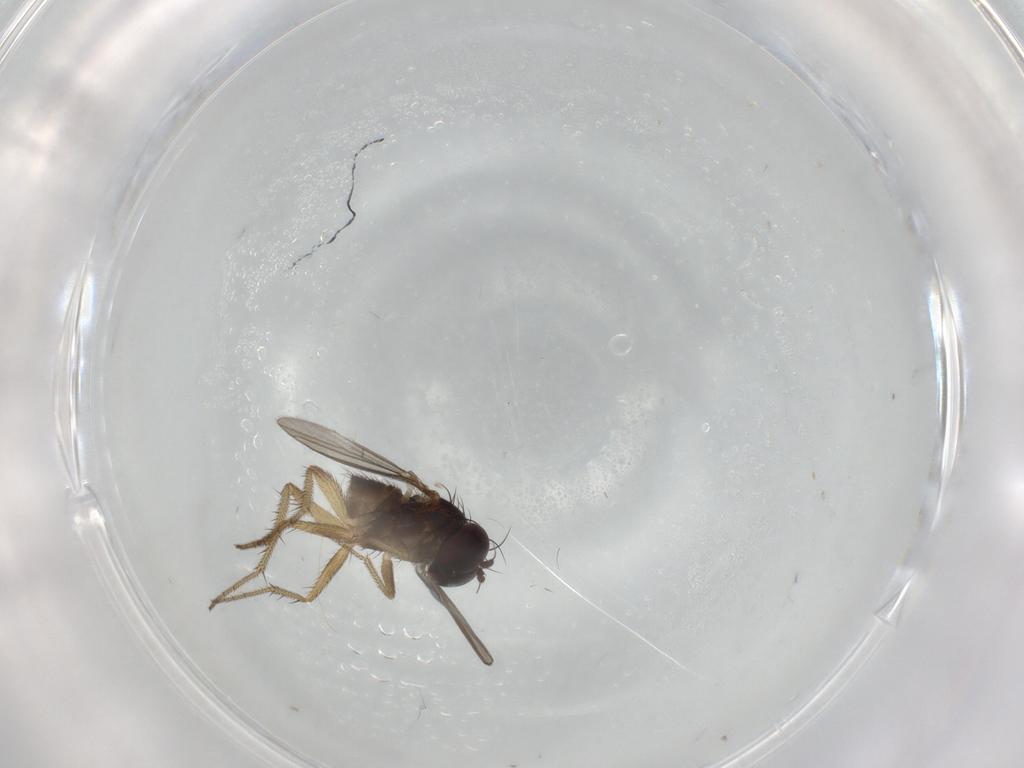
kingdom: Animalia
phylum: Arthropoda
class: Insecta
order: Diptera
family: Dolichopodidae
